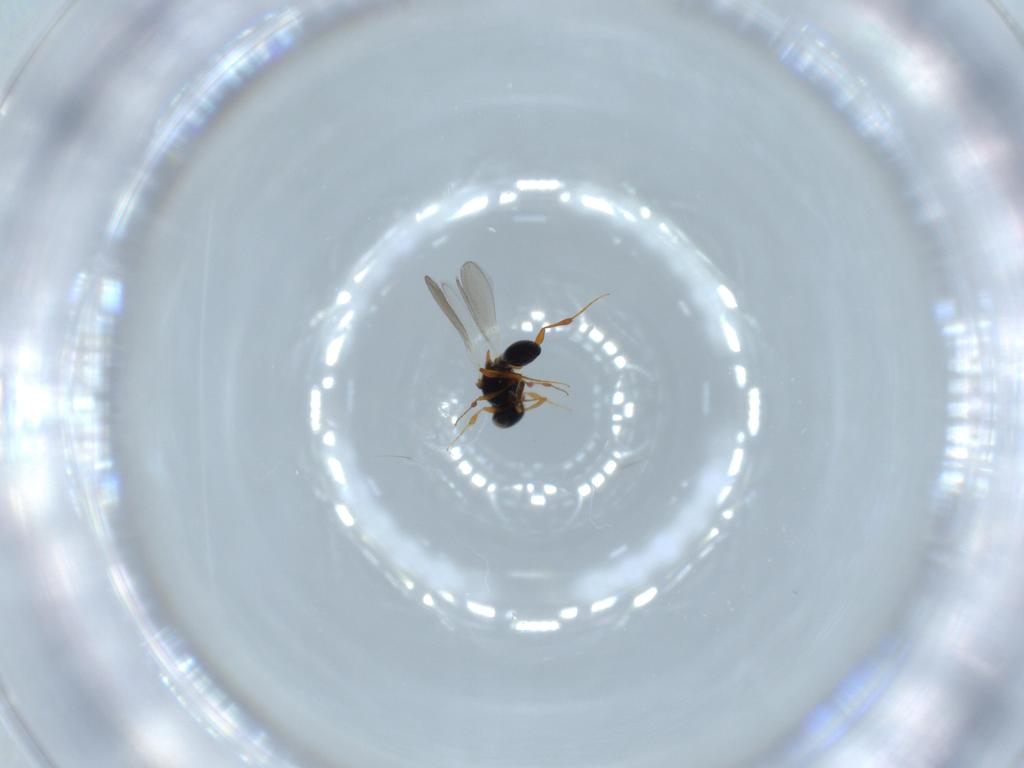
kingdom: Animalia
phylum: Arthropoda
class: Insecta
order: Hymenoptera
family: Platygastridae
